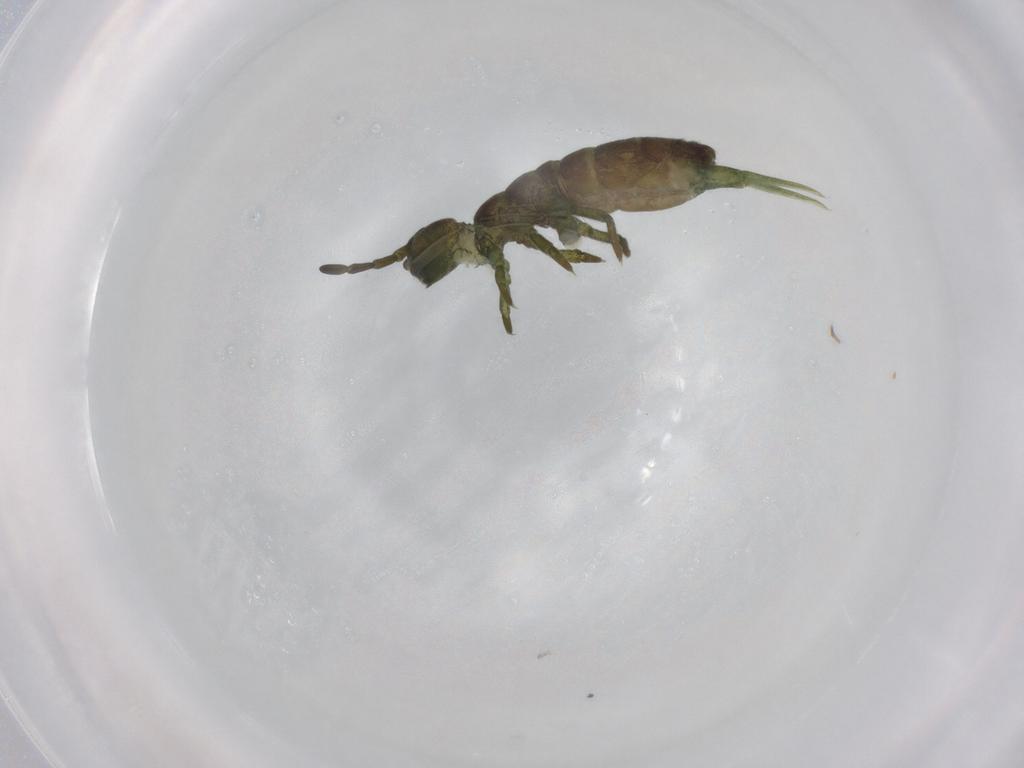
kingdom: Animalia
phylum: Arthropoda
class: Collembola
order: Entomobryomorpha
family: Isotomidae
